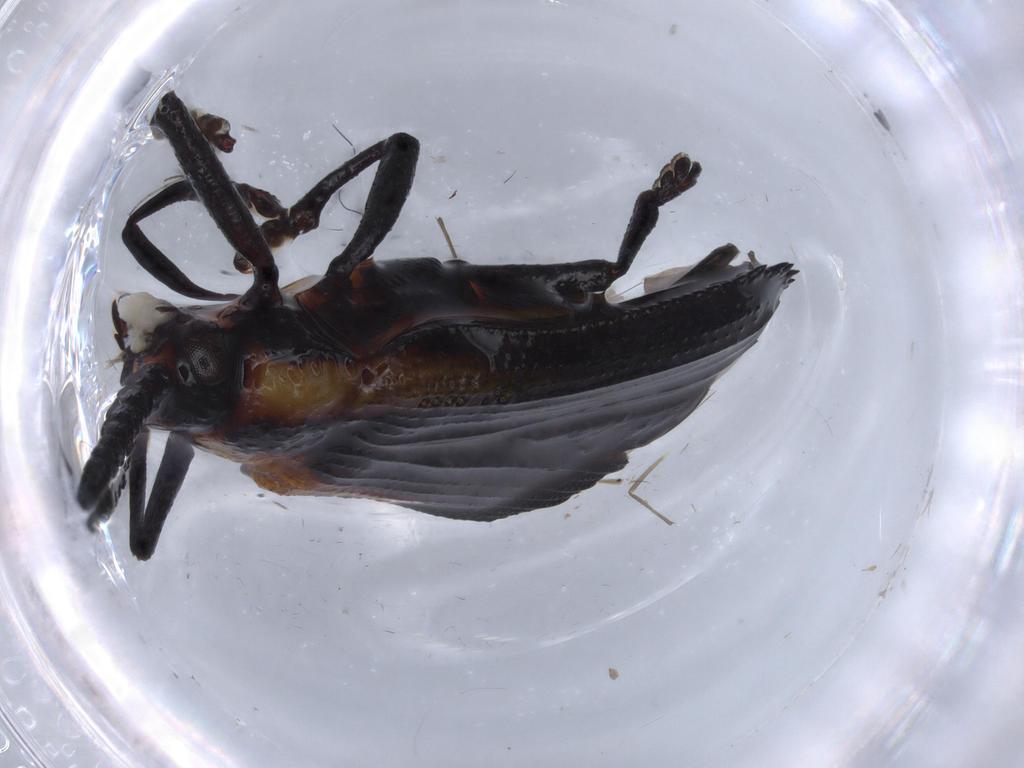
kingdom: Animalia
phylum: Arthropoda
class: Insecta
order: Coleoptera
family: Chrysomelidae
